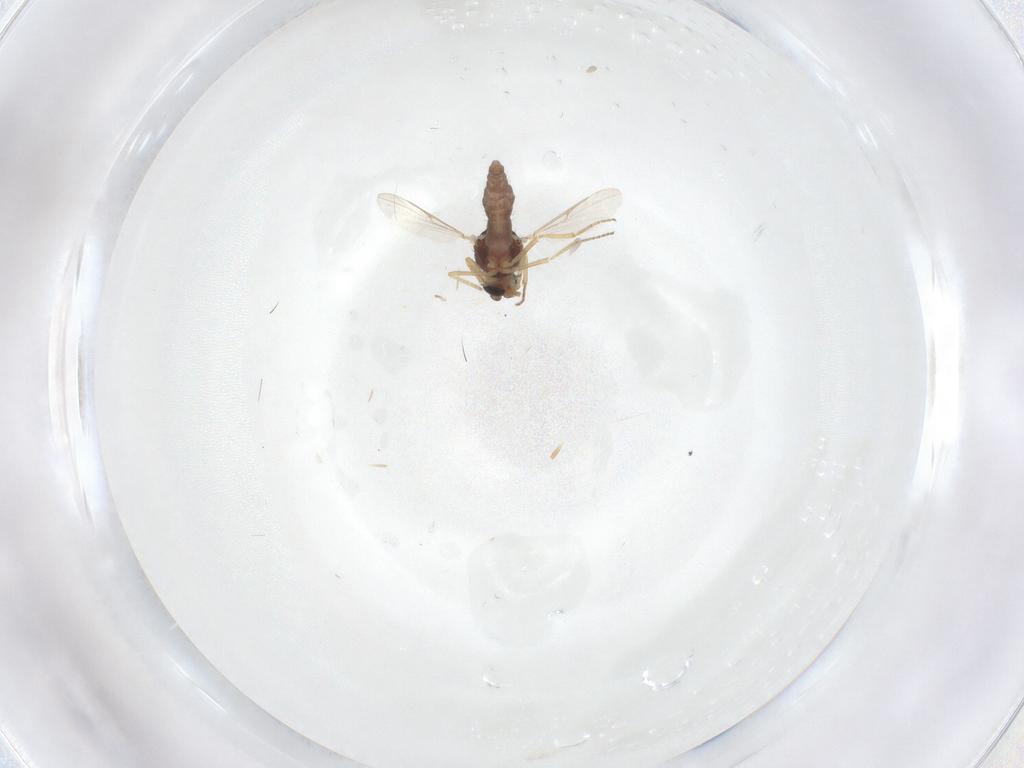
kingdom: Animalia
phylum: Arthropoda
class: Insecta
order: Diptera
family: Ceratopogonidae
